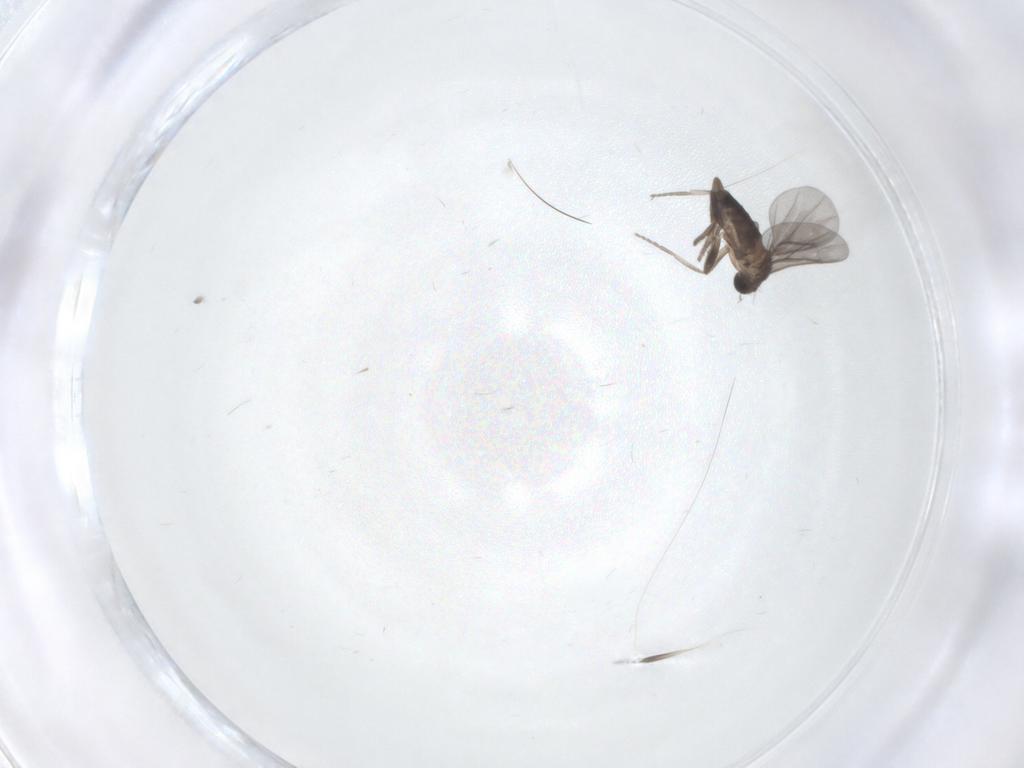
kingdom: Animalia
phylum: Arthropoda
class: Insecta
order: Diptera
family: Phoridae
